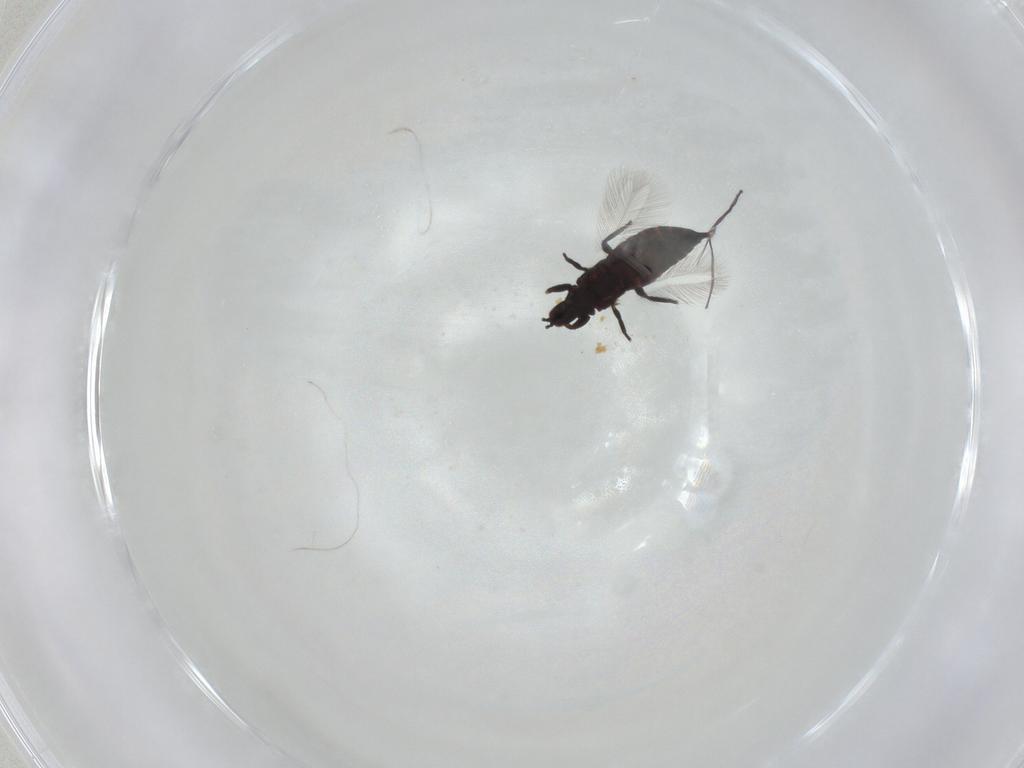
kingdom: Animalia
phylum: Arthropoda
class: Insecta
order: Thysanoptera
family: Phlaeothripidae
